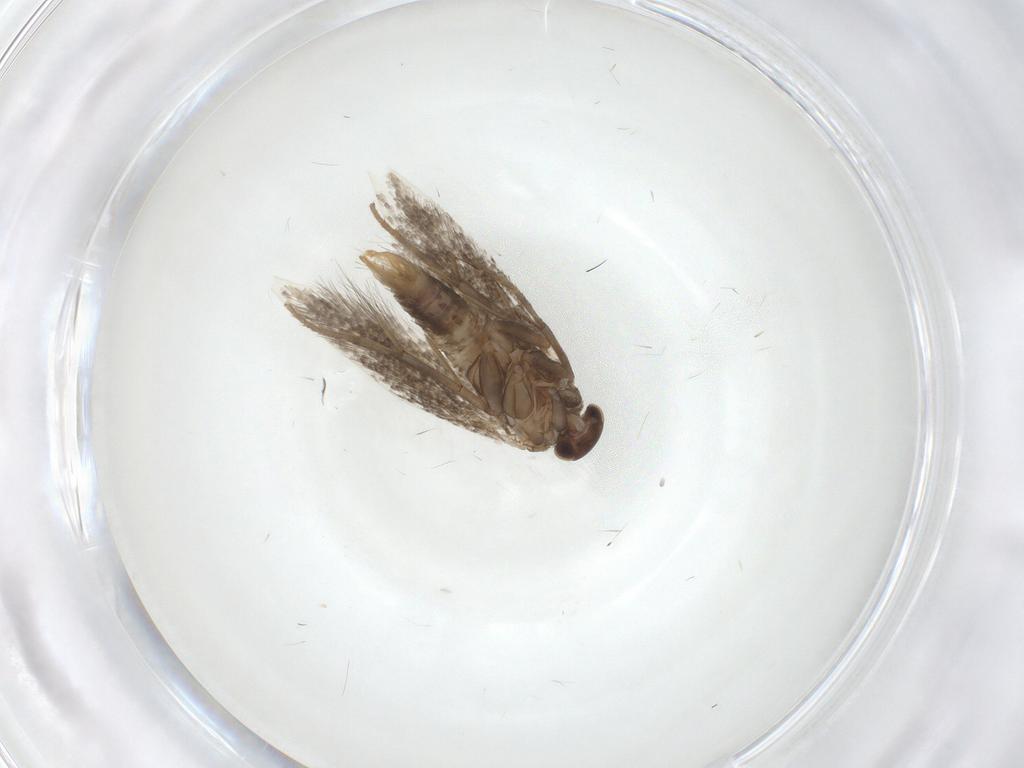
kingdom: Animalia
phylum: Arthropoda
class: Insecta
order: Lepidoptera
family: Elachistidae
